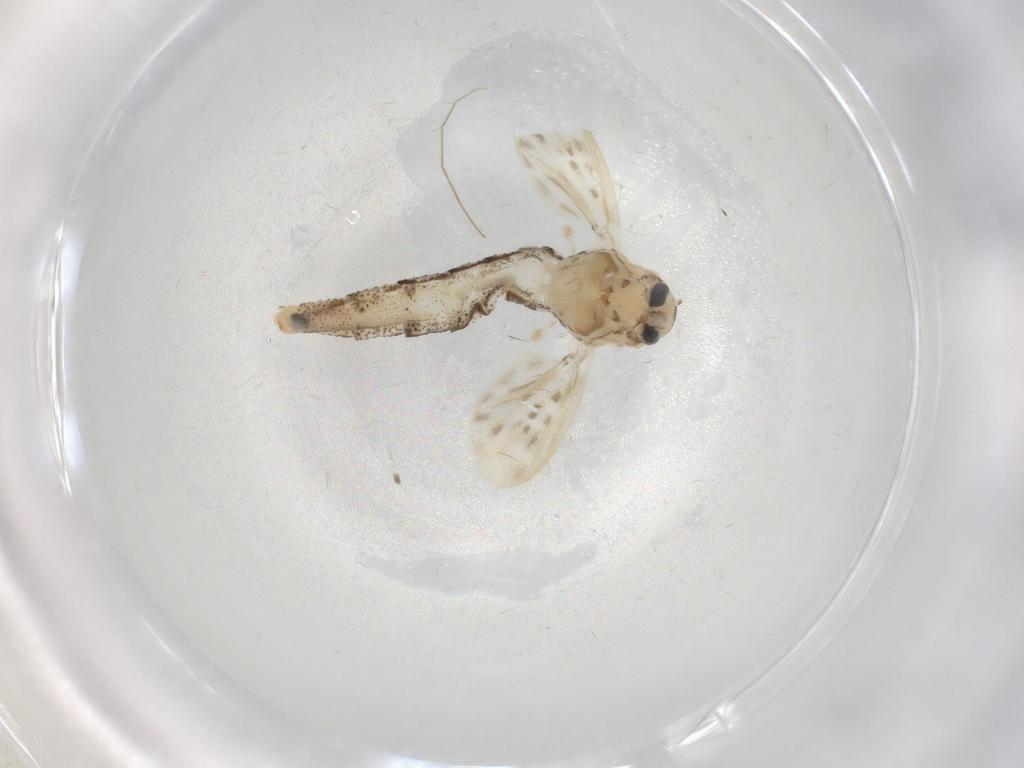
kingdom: Animalia
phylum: Arthropoda
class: Insecta
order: Diptera
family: Chaoboridae
